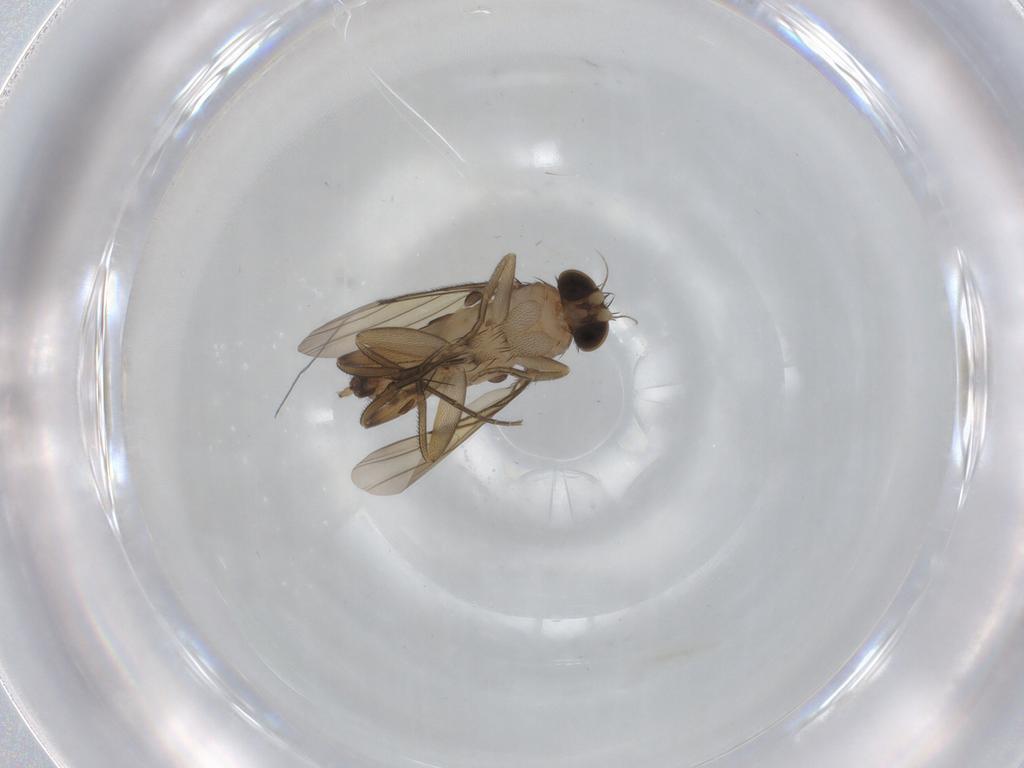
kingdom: Animalia
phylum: Arthropoda
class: Insecta
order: Diptera
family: Phoridae
